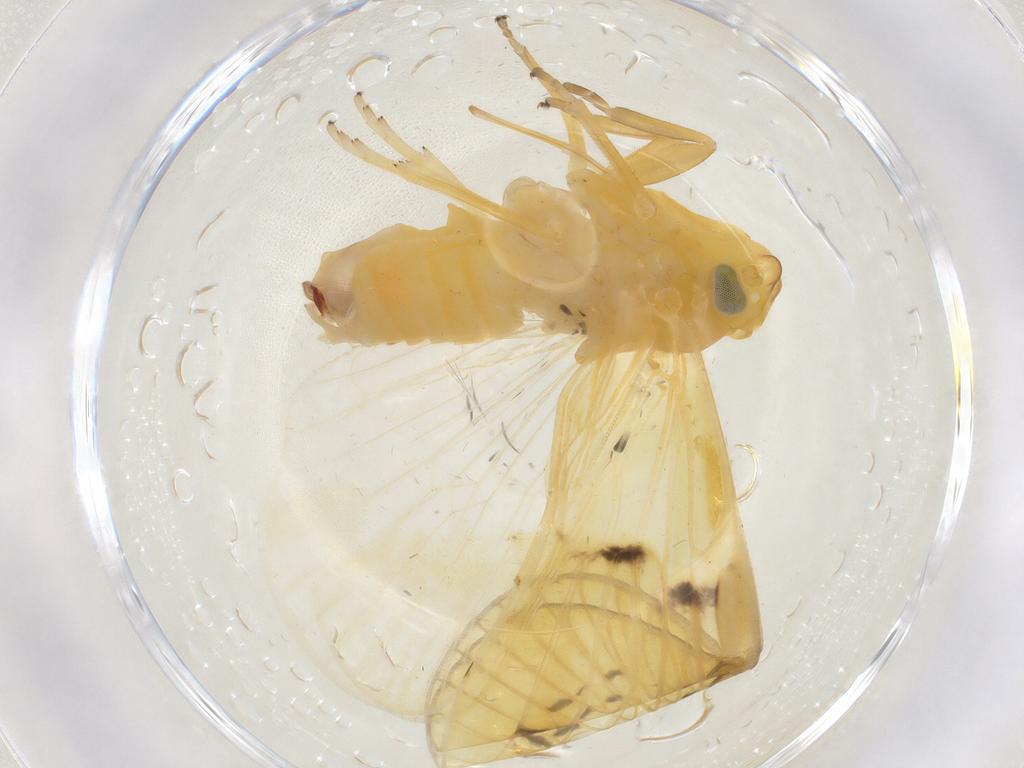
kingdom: Animalia
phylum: Arthropoda
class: Insecta
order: Hemiptera
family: Cixiidae
